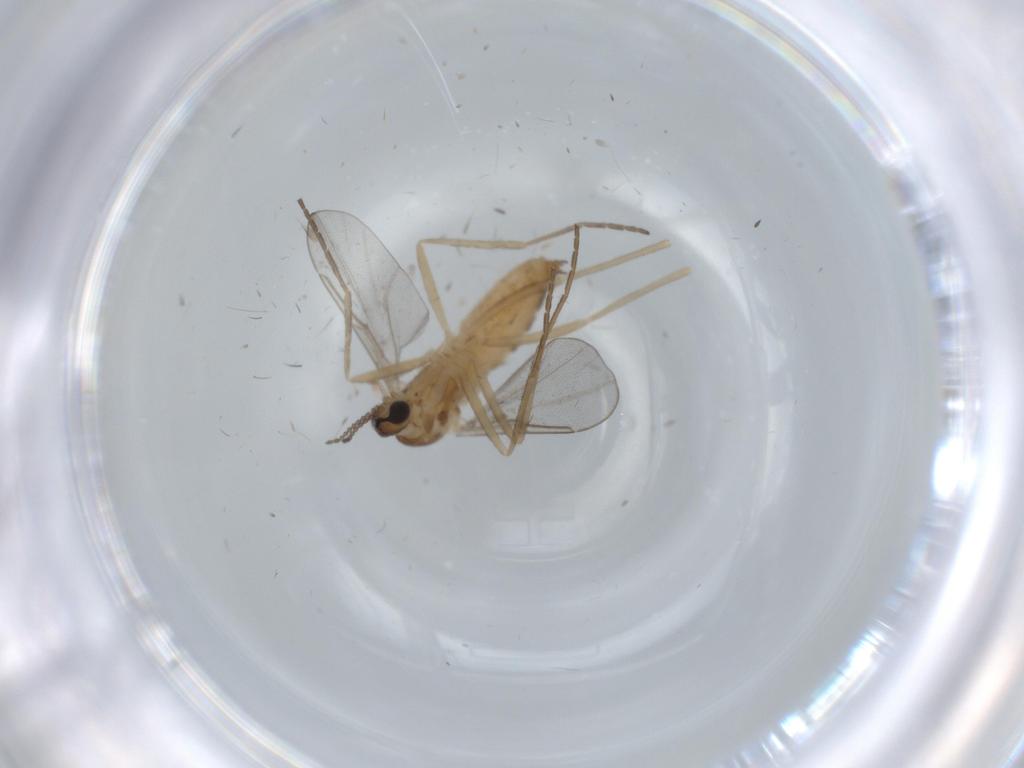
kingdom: Animalia
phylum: Arthropoda
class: Insecta
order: Diptera
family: Cecidomyiidae
